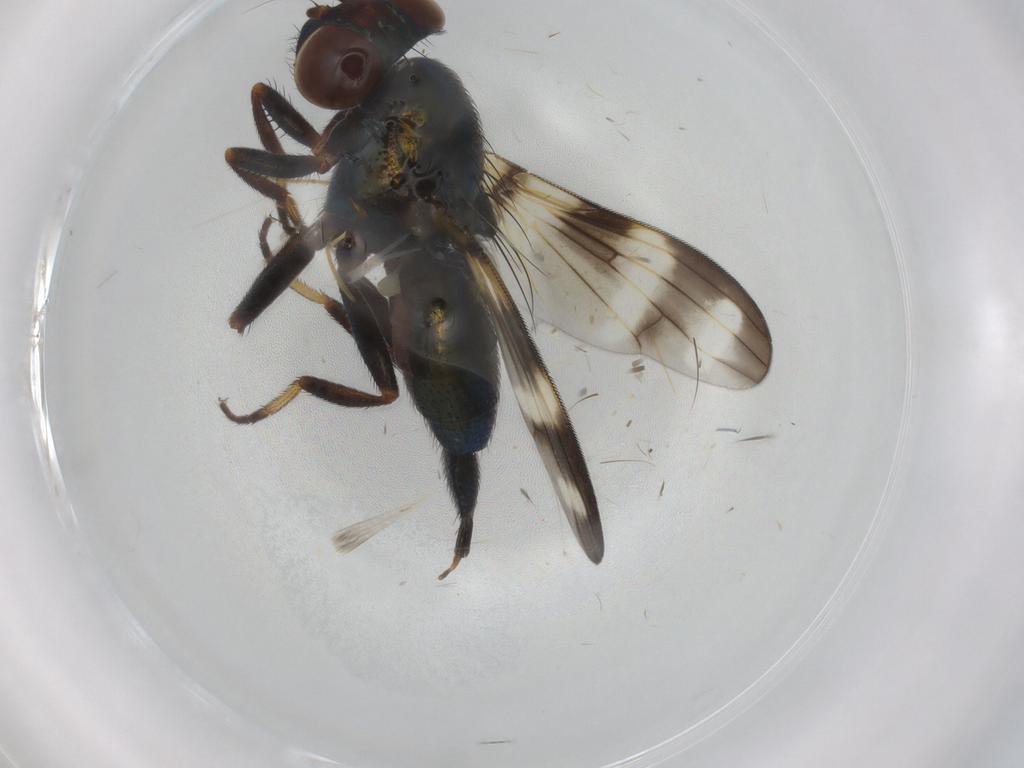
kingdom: Animalia
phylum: Arthropoda
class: Insecta
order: Diptera
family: Ulidiidae
